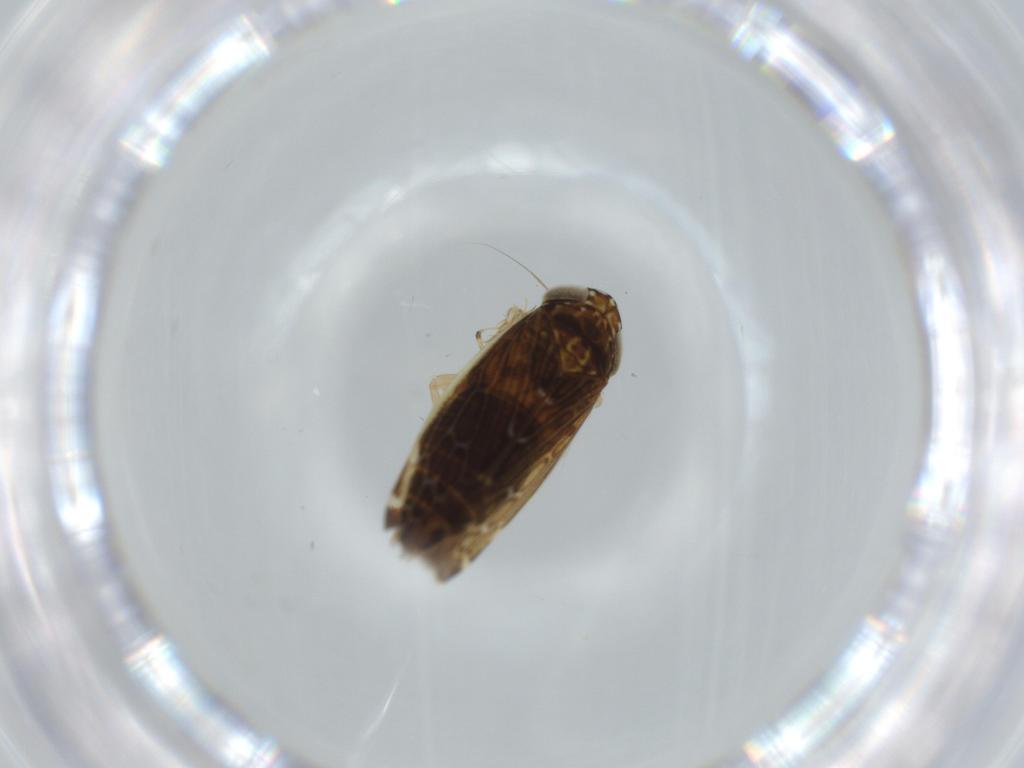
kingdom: Animalia
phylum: Arthropoda
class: Insecta
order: Hemiptera
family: Cicadellidae
